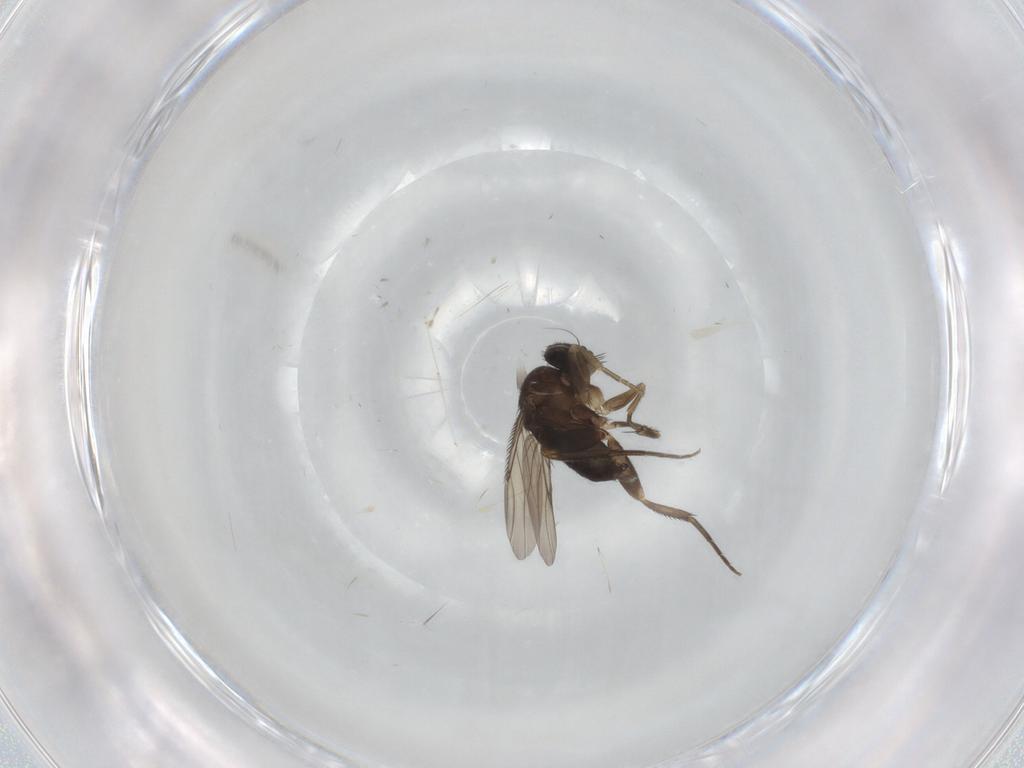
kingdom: Animalia
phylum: Arthropoda
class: Insecta
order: Diptera
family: Phoridae
